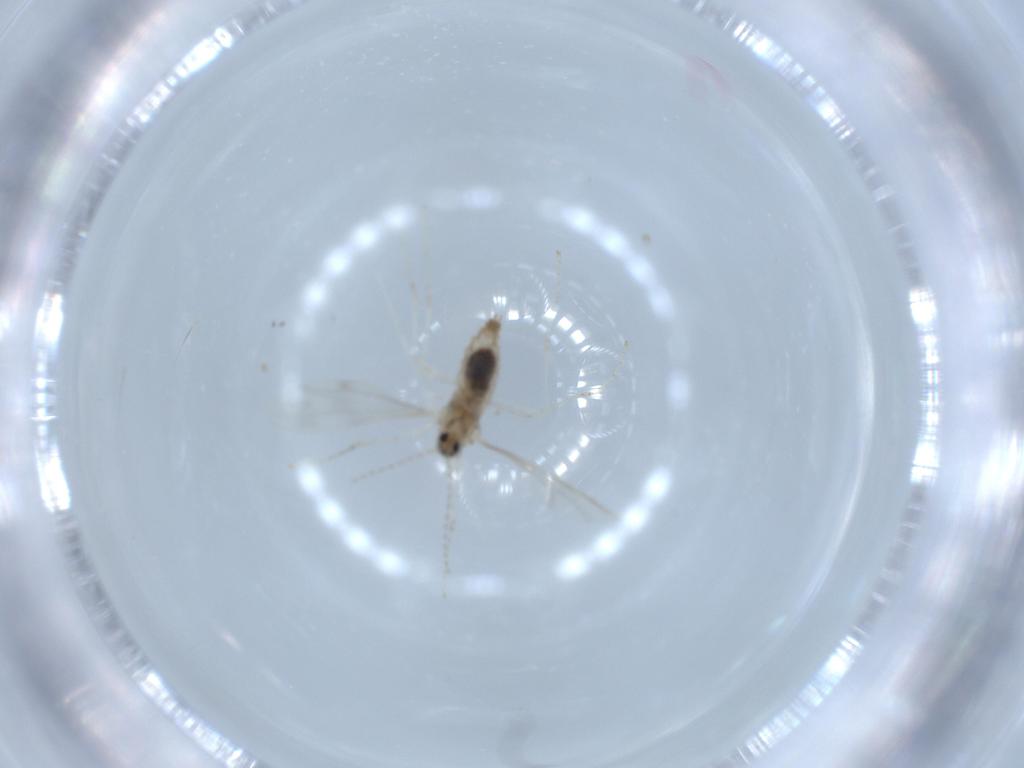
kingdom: Animalia
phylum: Arthropoda
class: Insecta
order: Diptera
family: Cecidomyiidae
